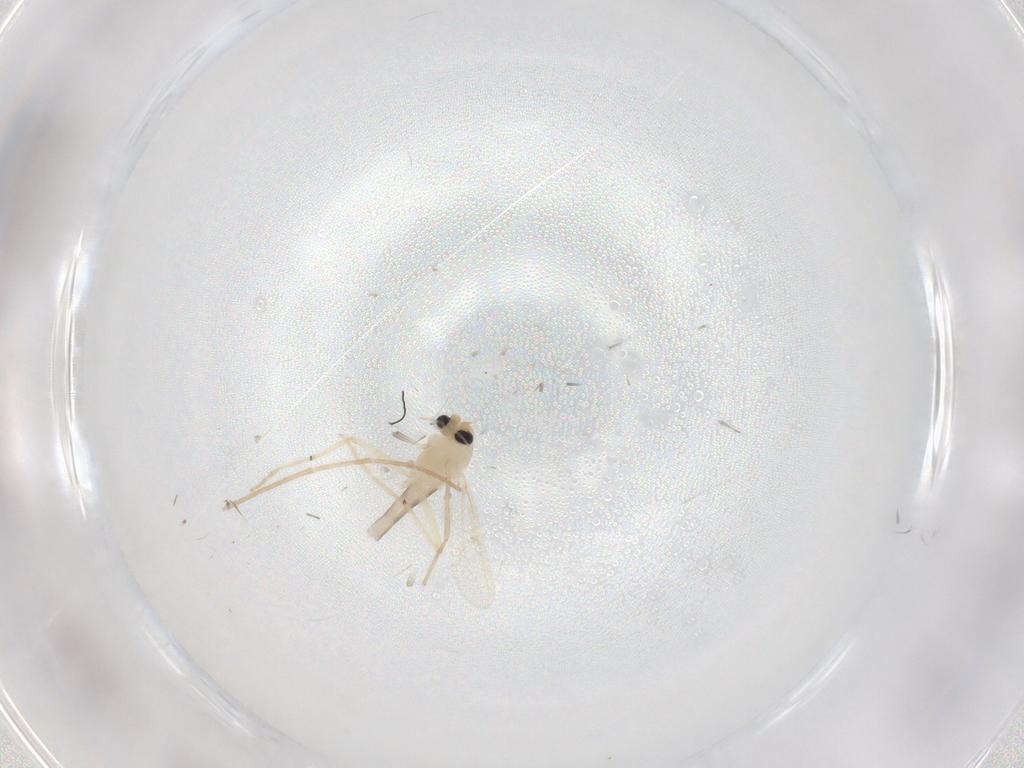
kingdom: Animalia
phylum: Arthropoda
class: Insecta
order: Diptera
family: Chironomidae
